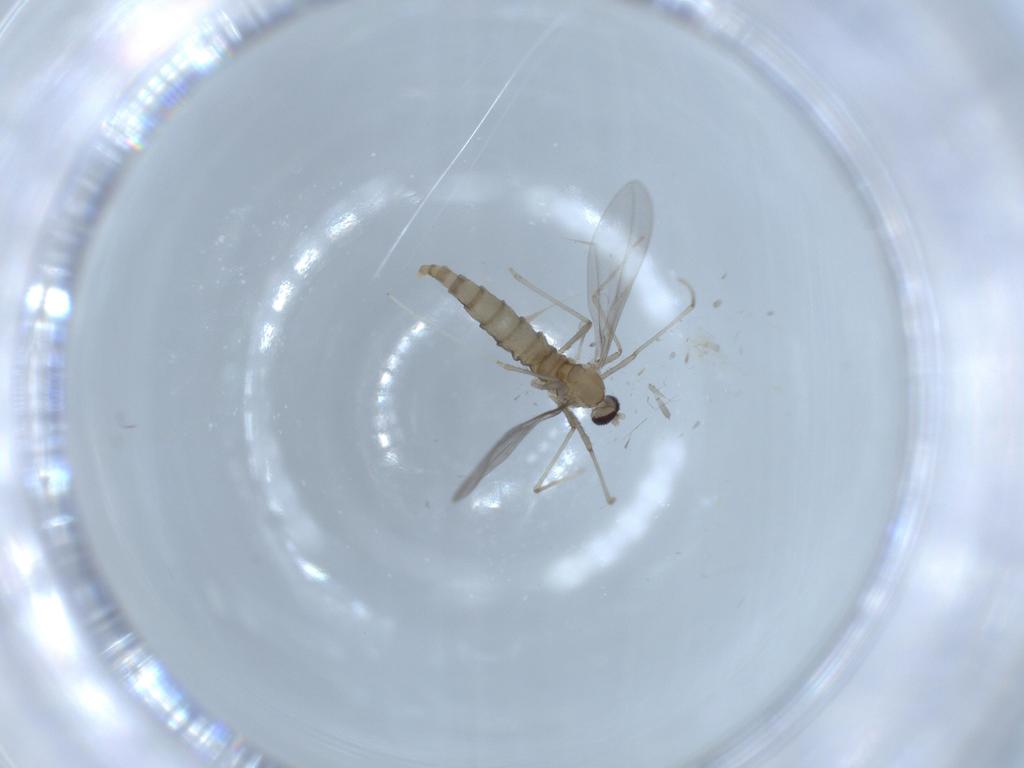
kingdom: Animalia
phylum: Arthropoda
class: Insecta
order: Diptera
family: Cecidomyiidae
